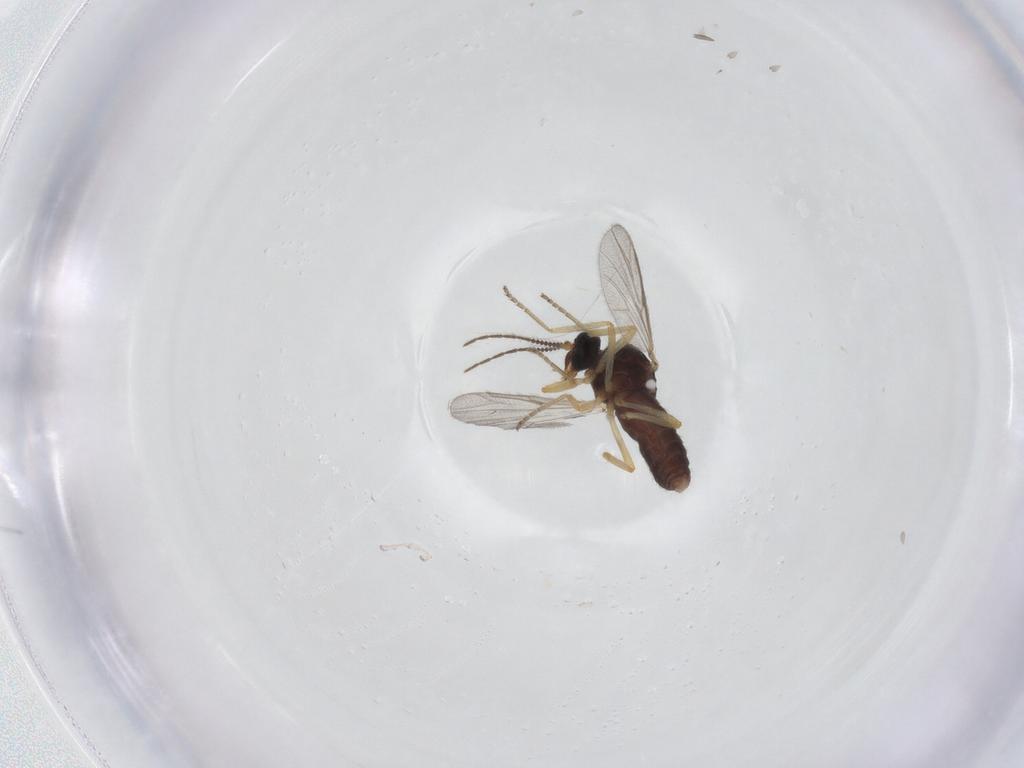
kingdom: Animalia
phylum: Arthropoda
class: Insecta
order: Diptera
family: Ceratopogonidae
